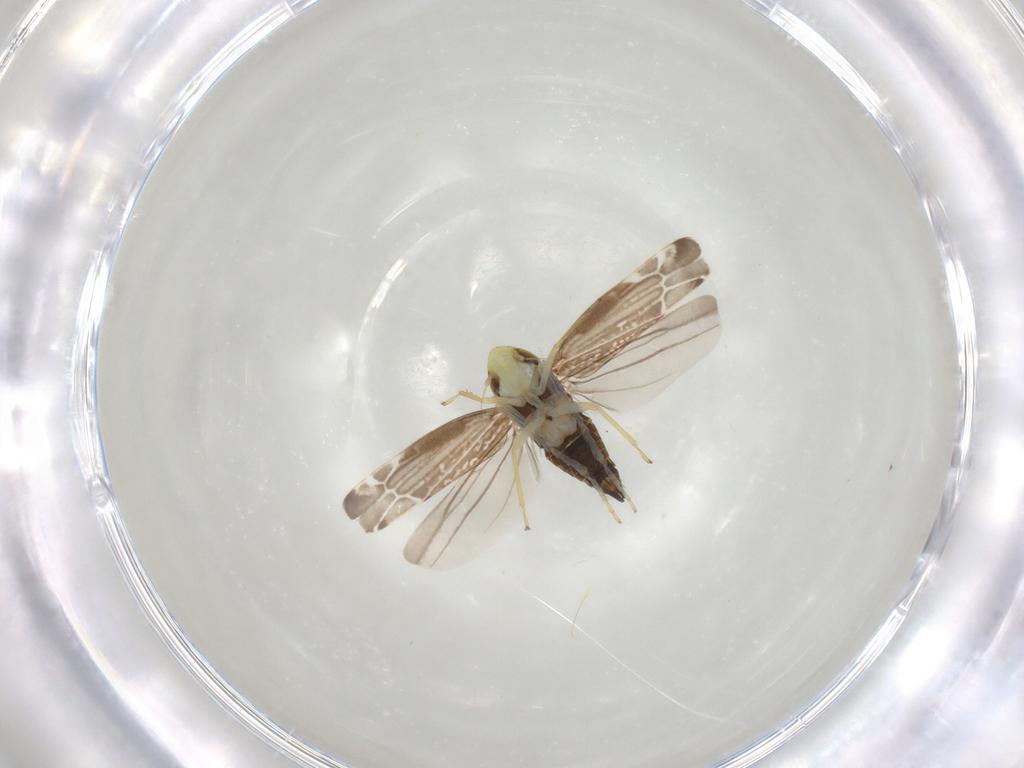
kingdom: Animalia
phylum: Arthropoda
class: Insecta
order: Hemiptera
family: Cicadellidae
